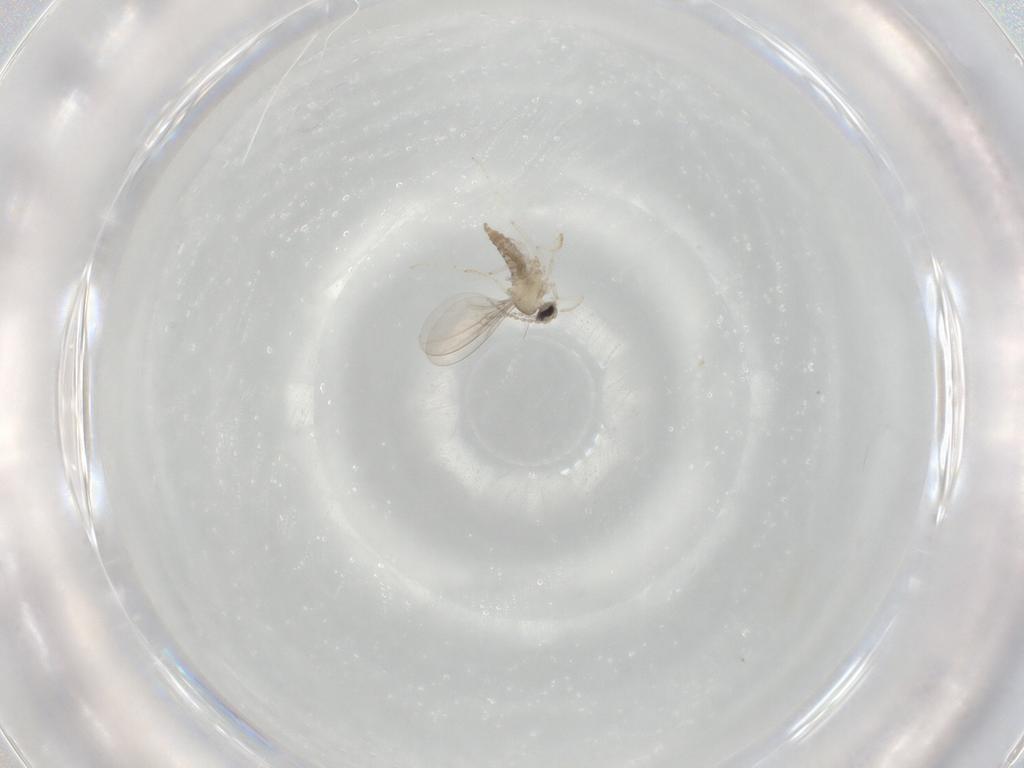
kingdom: Animalia
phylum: Arthropoda
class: Insecta
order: Diptera
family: Cecidomyiidae
